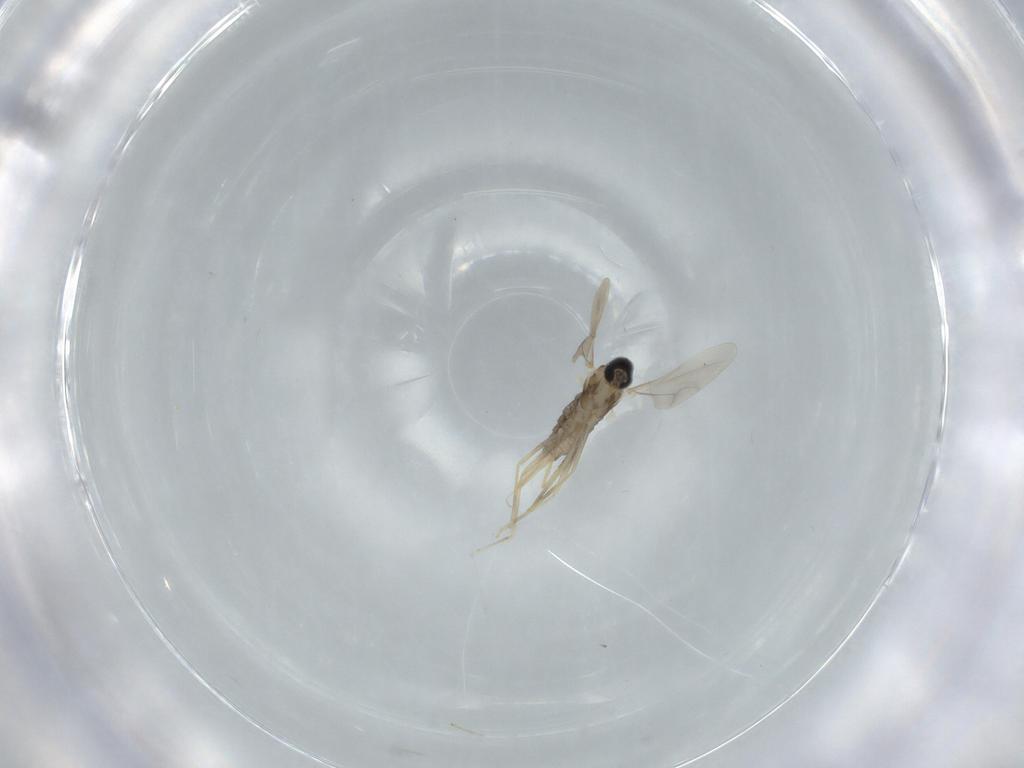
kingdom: Animalia
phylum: Arthropoda
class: Insecta
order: Diptera
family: Cecidomyiidae
